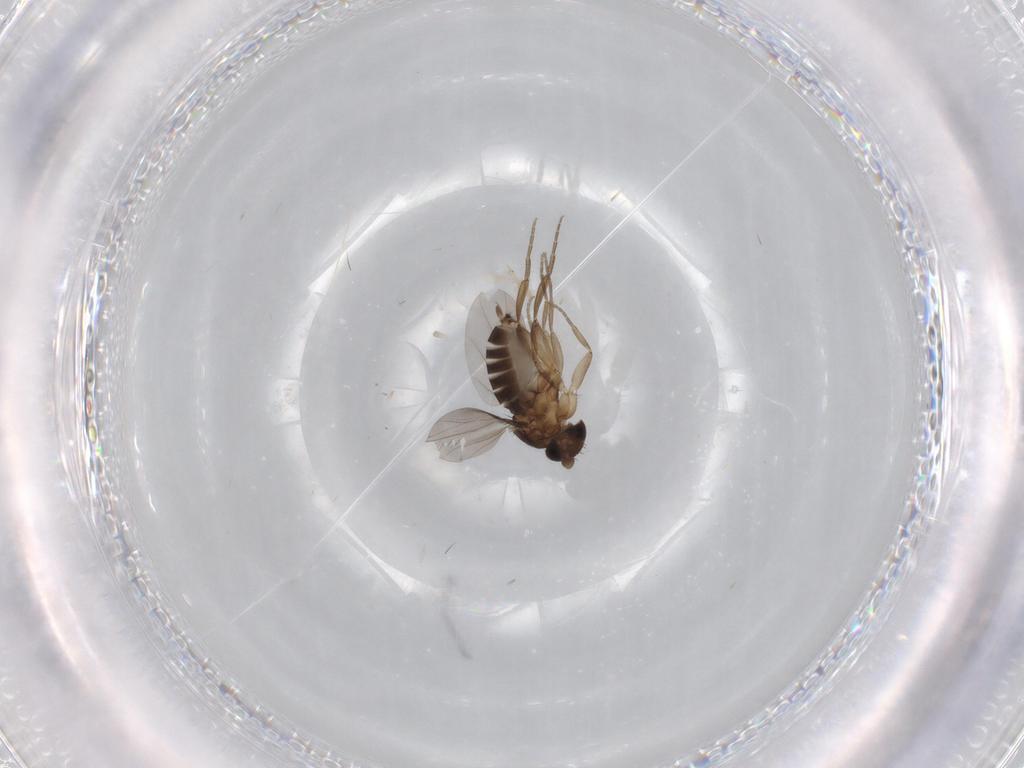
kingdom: Animalia
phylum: Arthropoda
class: Insecta
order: Diptera
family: Phoridae
